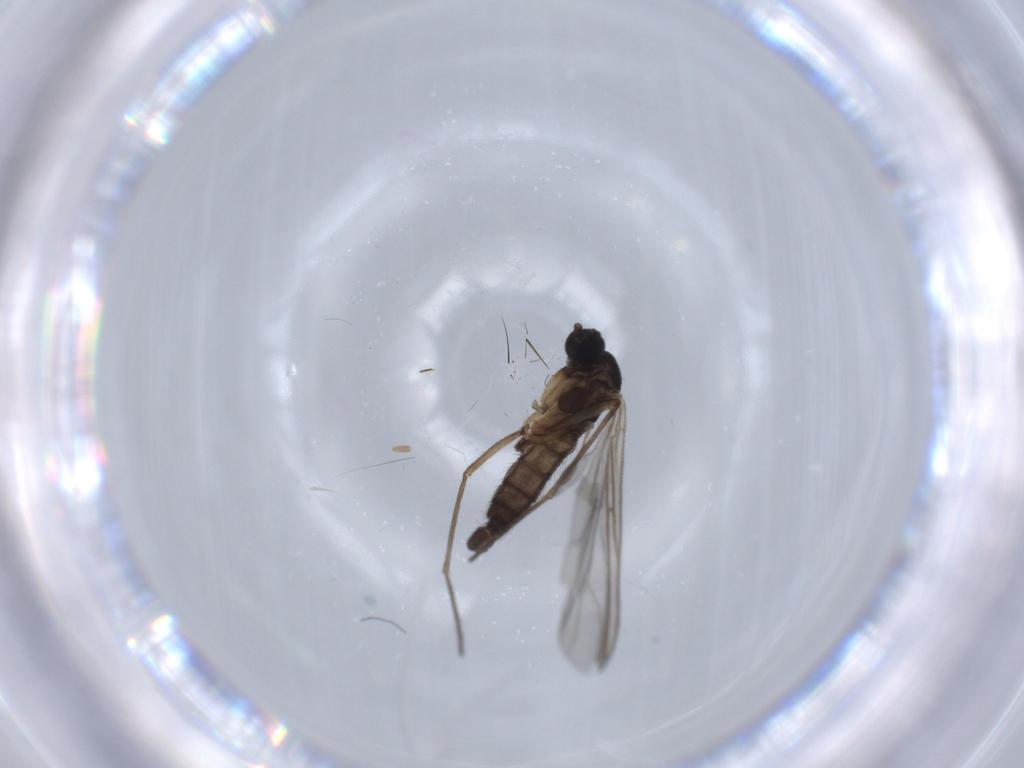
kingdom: Animalia
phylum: Arthropoda
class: Insecta
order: Diptera
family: Sciaridae
